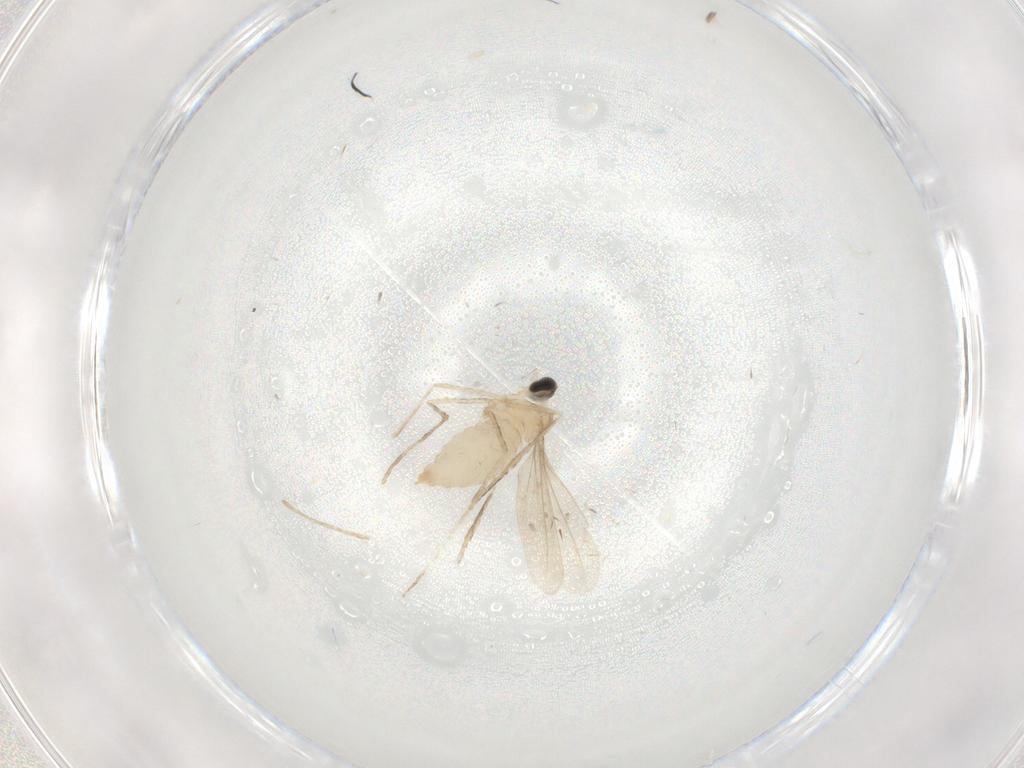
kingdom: Animalia
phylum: Arthropoda
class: Insecta
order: Diptera
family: Cecidomyiidae
